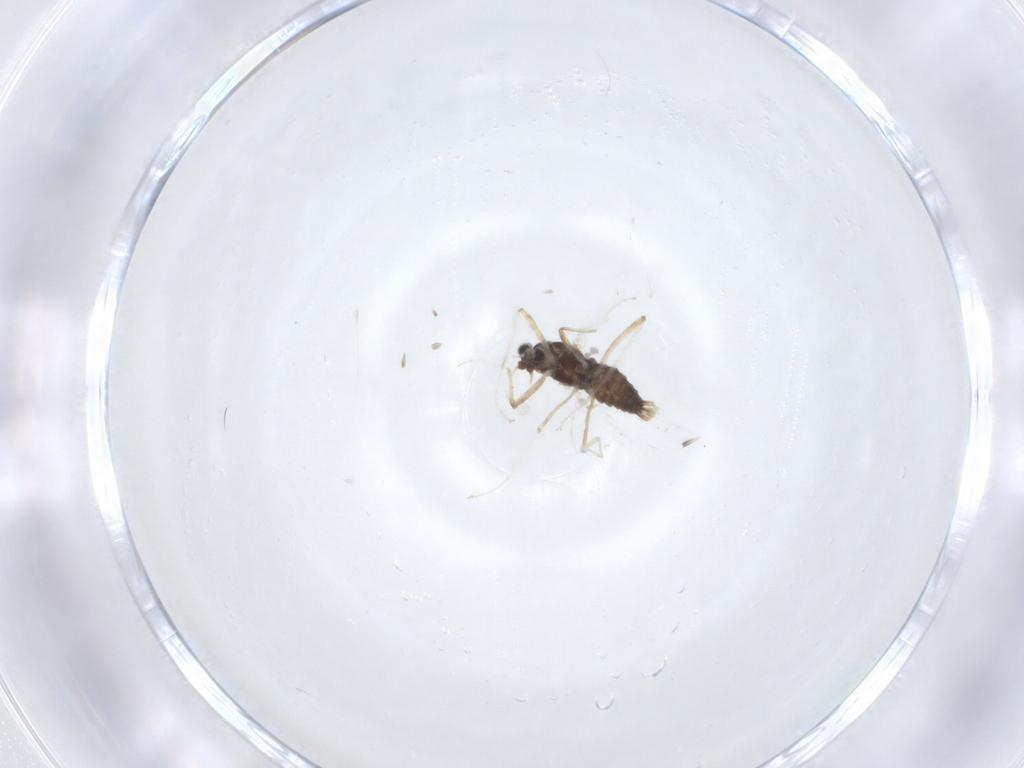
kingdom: Animalia
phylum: Arthropoda
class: Insecta
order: Diptera
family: Cecidomyiidae
